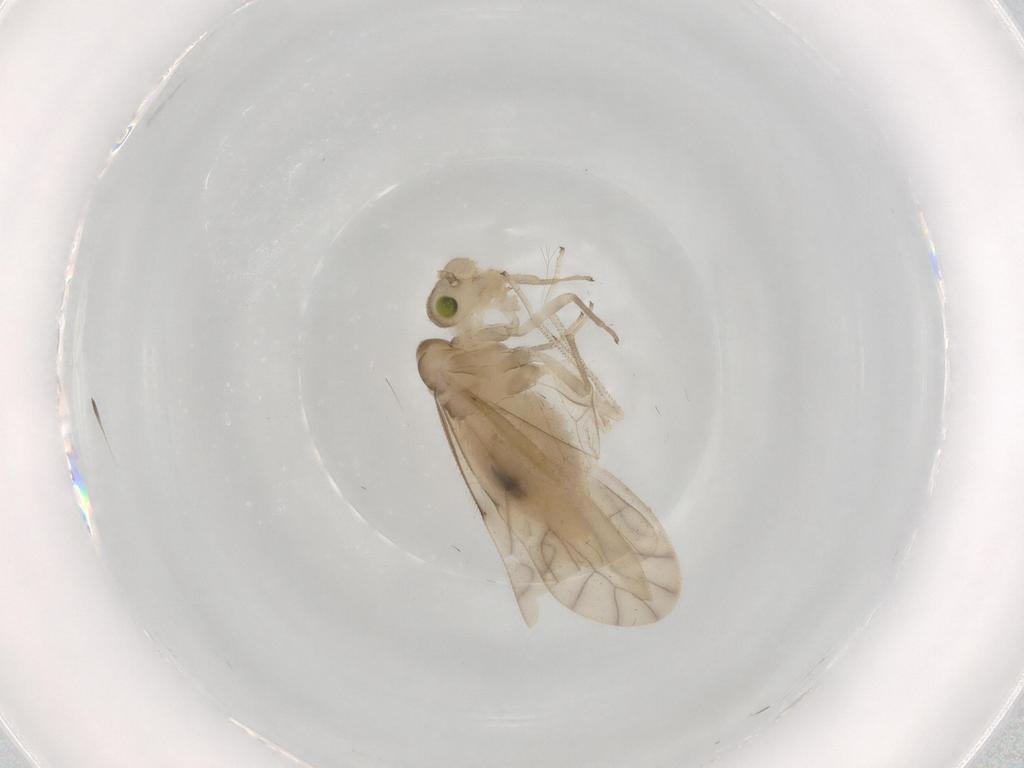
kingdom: Animalia
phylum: Arthropoda
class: Insecta
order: Psocodea
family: Caeciliusidae
